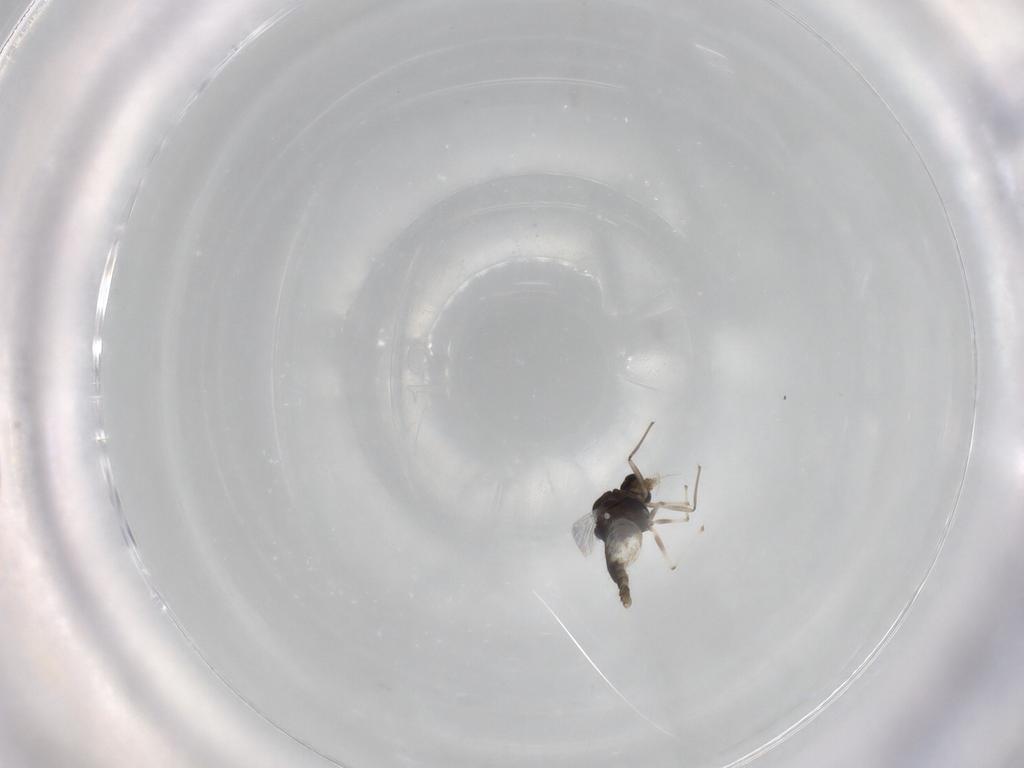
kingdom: Animalia
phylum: Arthropoda
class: Insecta
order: Diptera
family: Chironomidae
